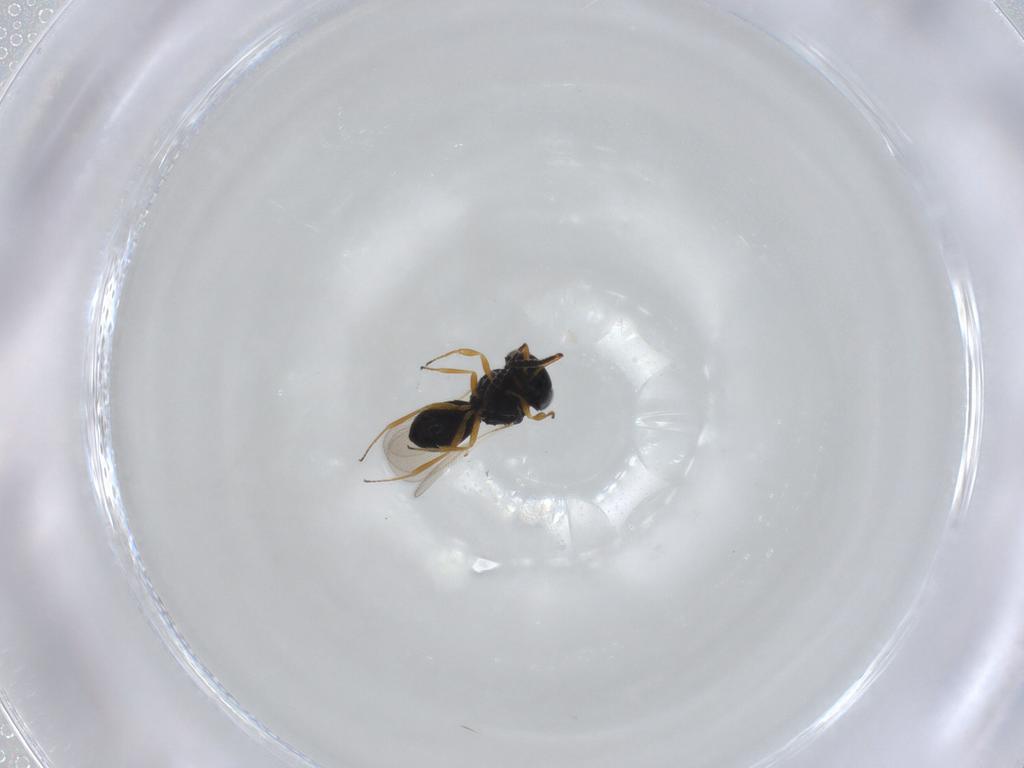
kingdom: Animalia
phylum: Arthropoda
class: Insecta
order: Hymenoptera
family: Scelionidae
